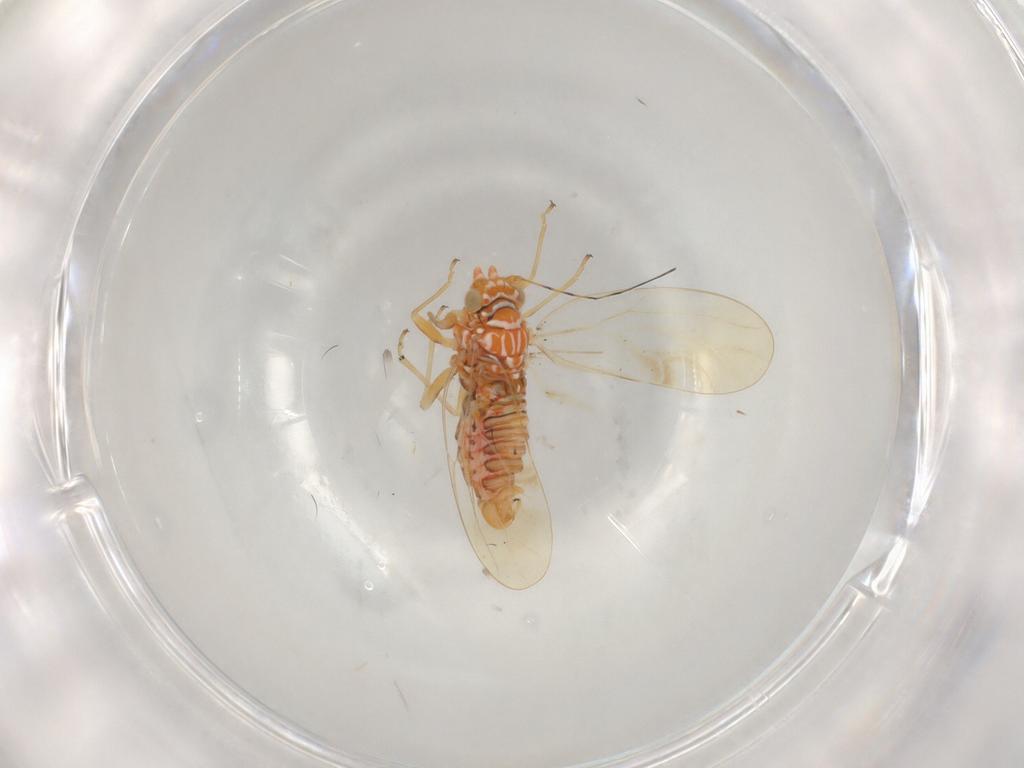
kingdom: Animalia
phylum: Arthropoda
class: Insecta
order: Hemiptera
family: Psyllidae
